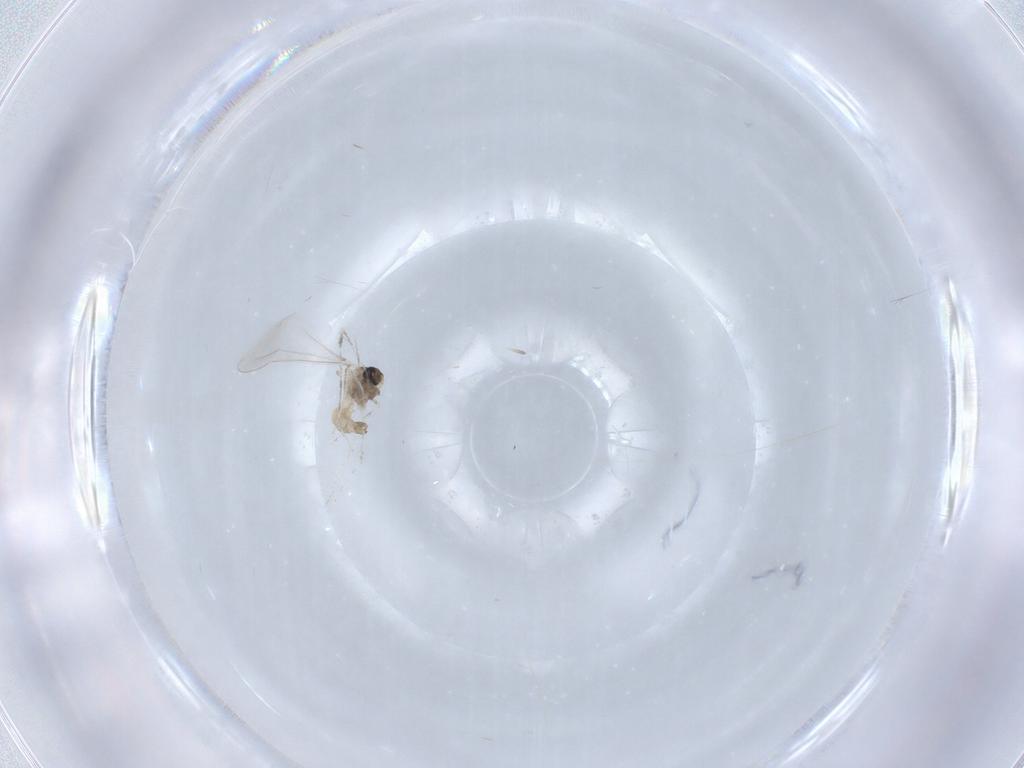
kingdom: Animalia
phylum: Arthropoda
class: Insecta
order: Diptera
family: Cecidomyiidae
